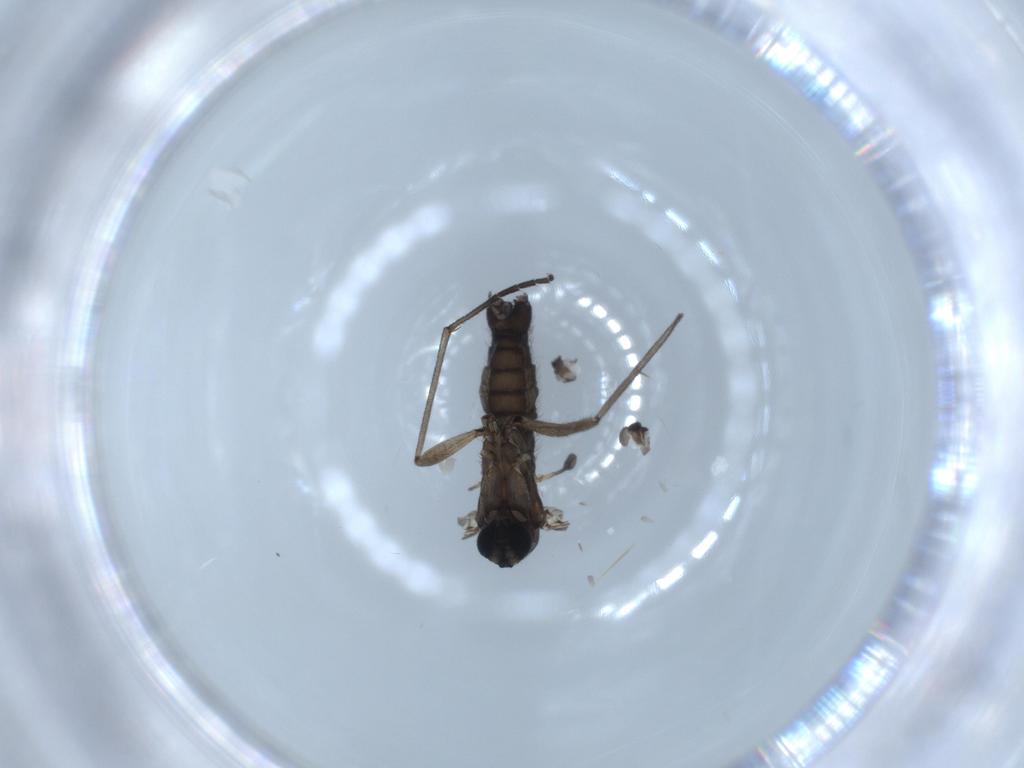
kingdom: Animalia
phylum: Arthropoda
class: Insecta
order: Diptera
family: Sciaridae
